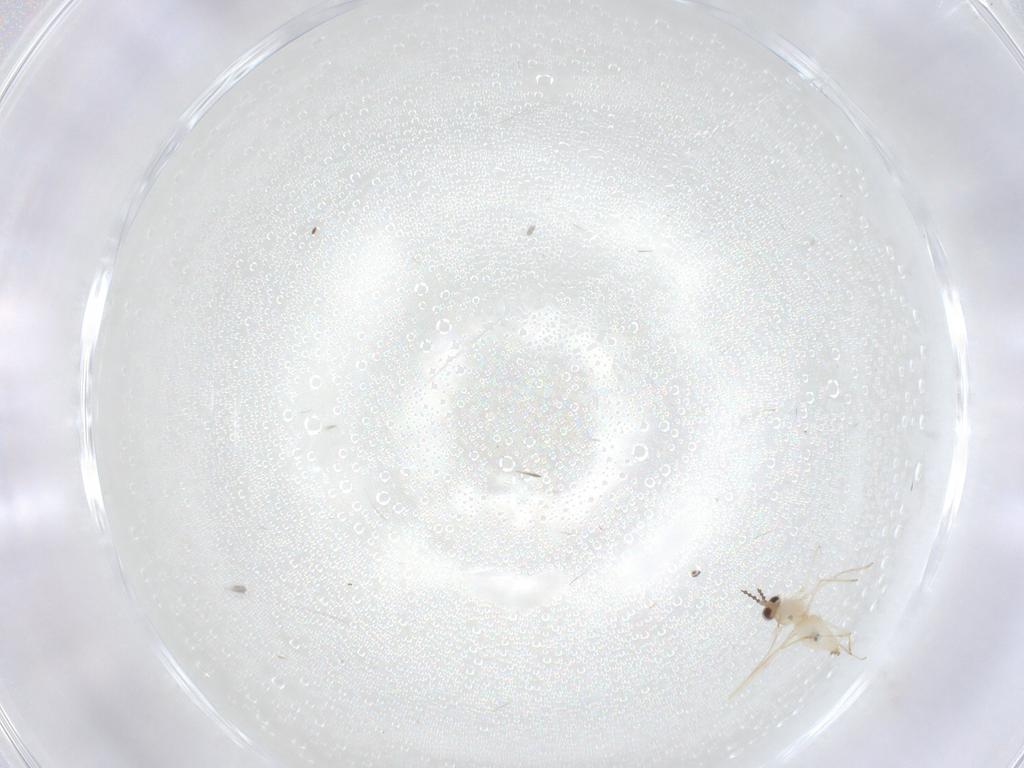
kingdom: Animalia
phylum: Arthropoda
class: Insecta
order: Diptera
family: Cecidomyiidae
